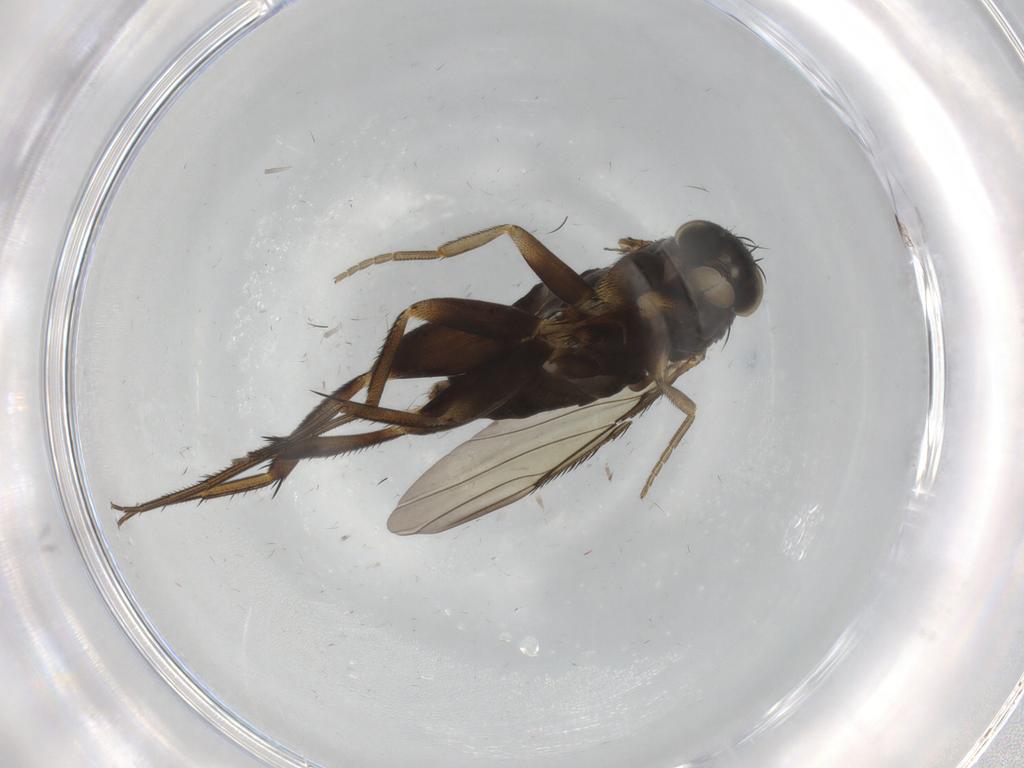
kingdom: Animalia
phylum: Arthropoda
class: Insecta
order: Diptera
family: Phoridae
